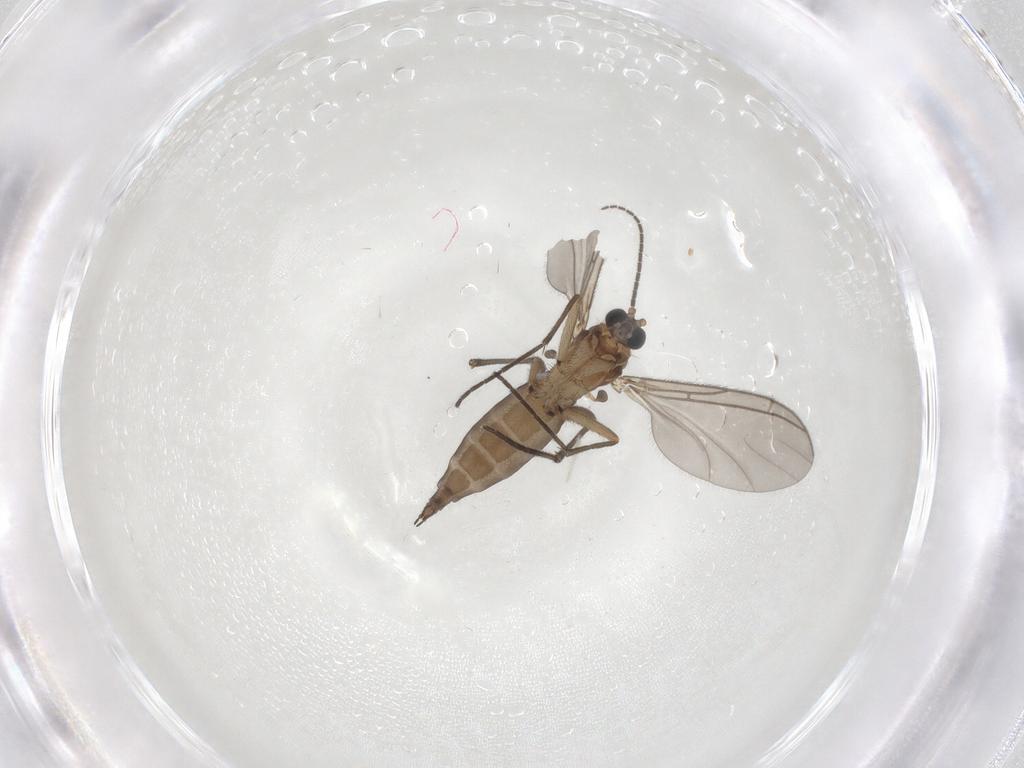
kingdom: Animalia
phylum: Arthropoda
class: Insecta
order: Diptera
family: Sciaridae
